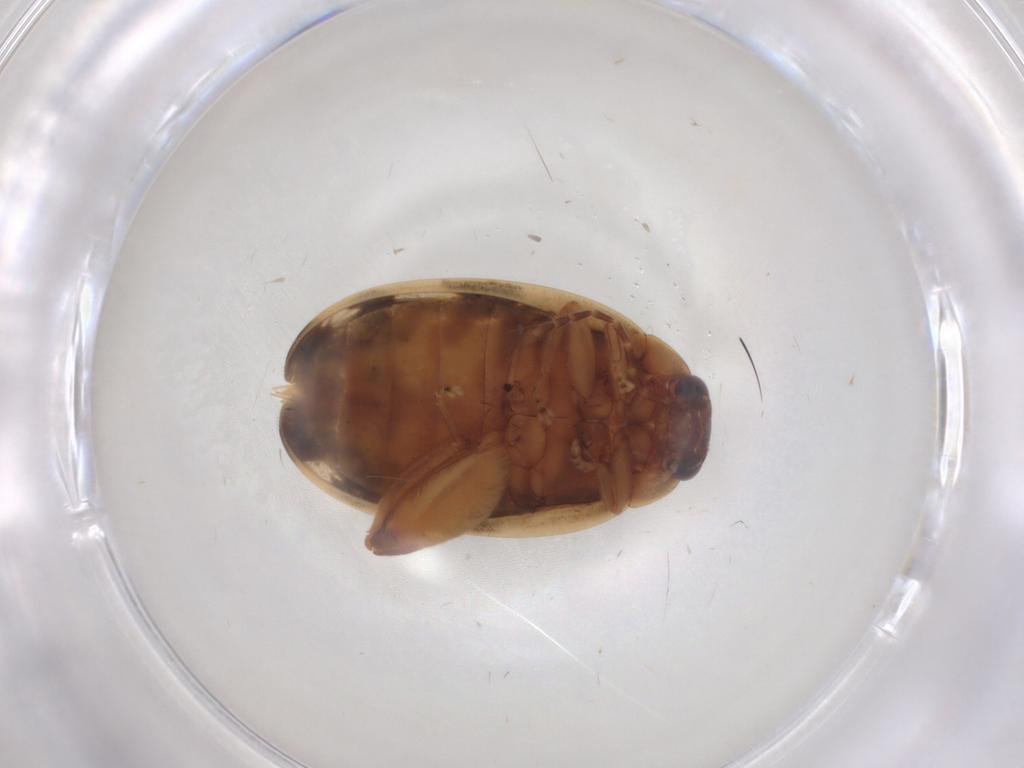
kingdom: Animalia
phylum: Arthropoda
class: Insecta
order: Coleoptera
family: Scirtidae
